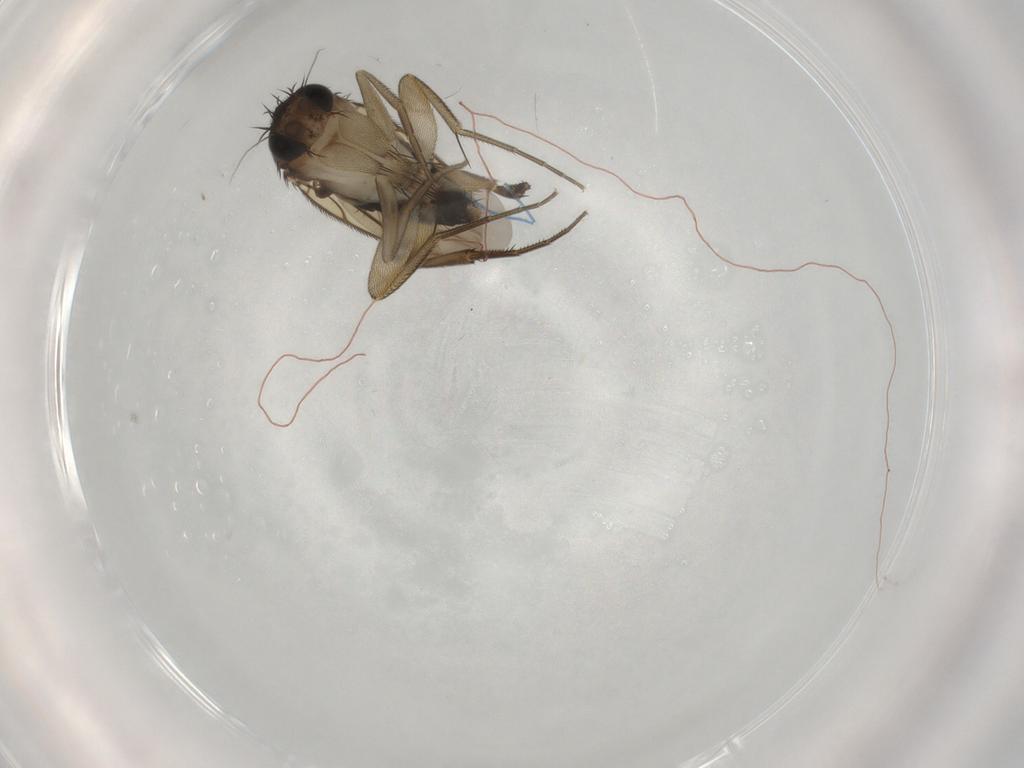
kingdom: Animalia
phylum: Arthropoda
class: Insecta
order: Diptera
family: Phoridae
